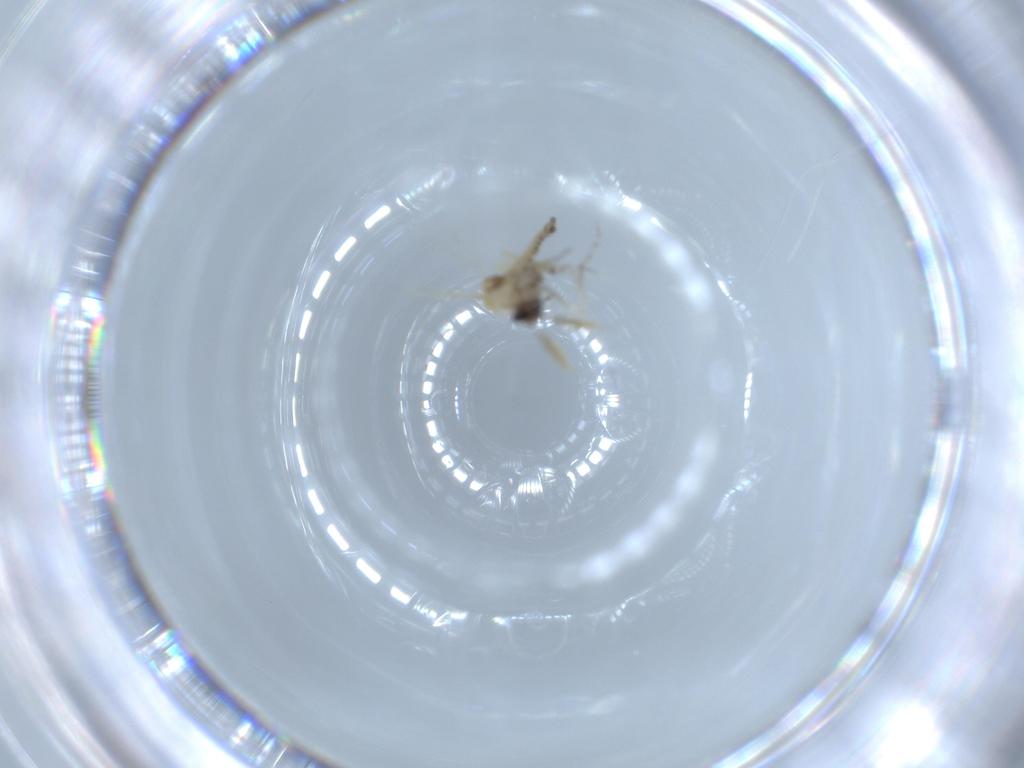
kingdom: Animalia
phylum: Arthropoda
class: Insecta
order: Diptera
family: Ceratopogonidae
